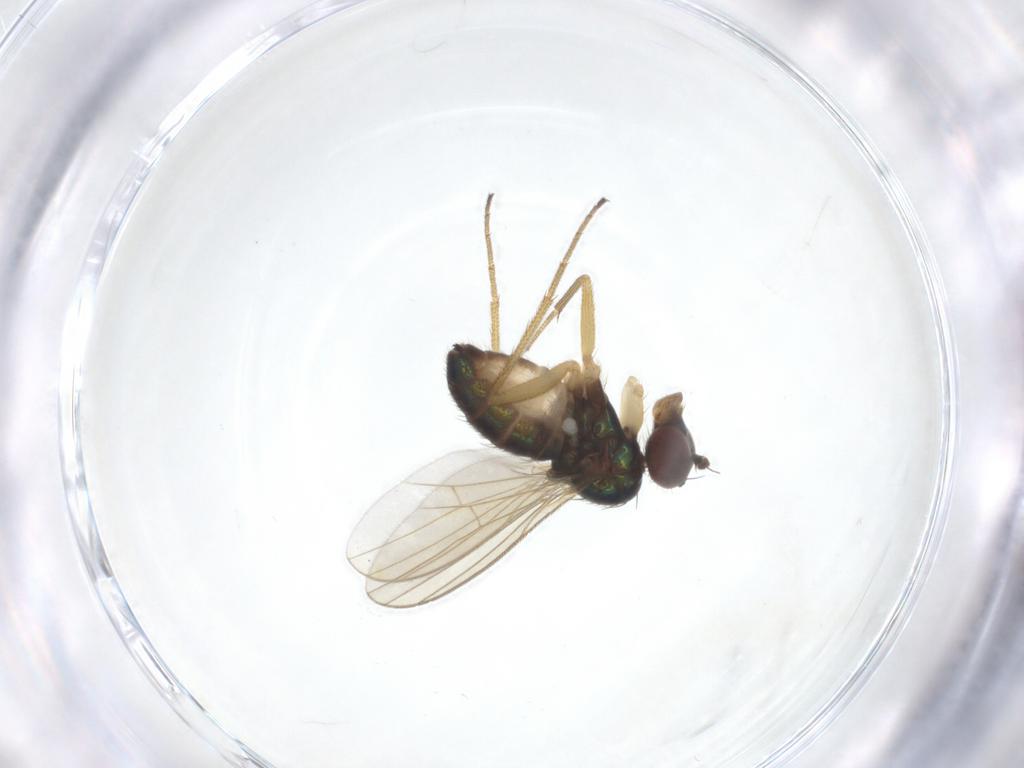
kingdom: Animalia
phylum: Arthropoda
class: Insecta
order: Diptera
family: Dolichopodidae
